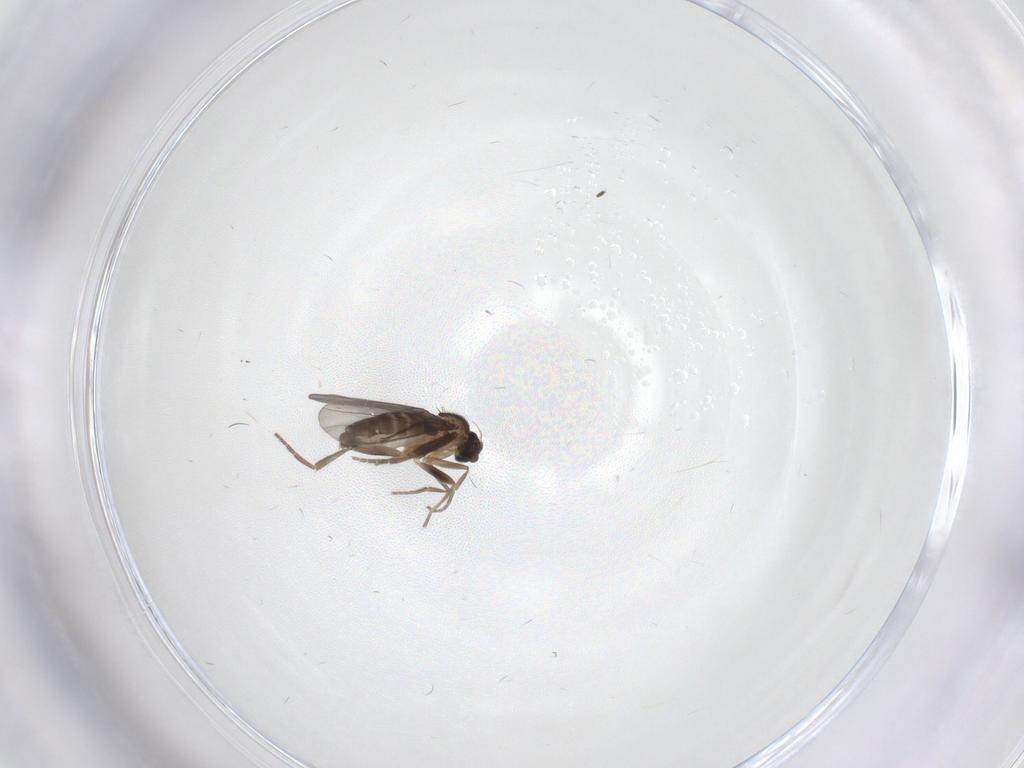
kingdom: Animalia
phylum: Arthropoda
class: Insecta
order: Diptera
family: Phoridae
